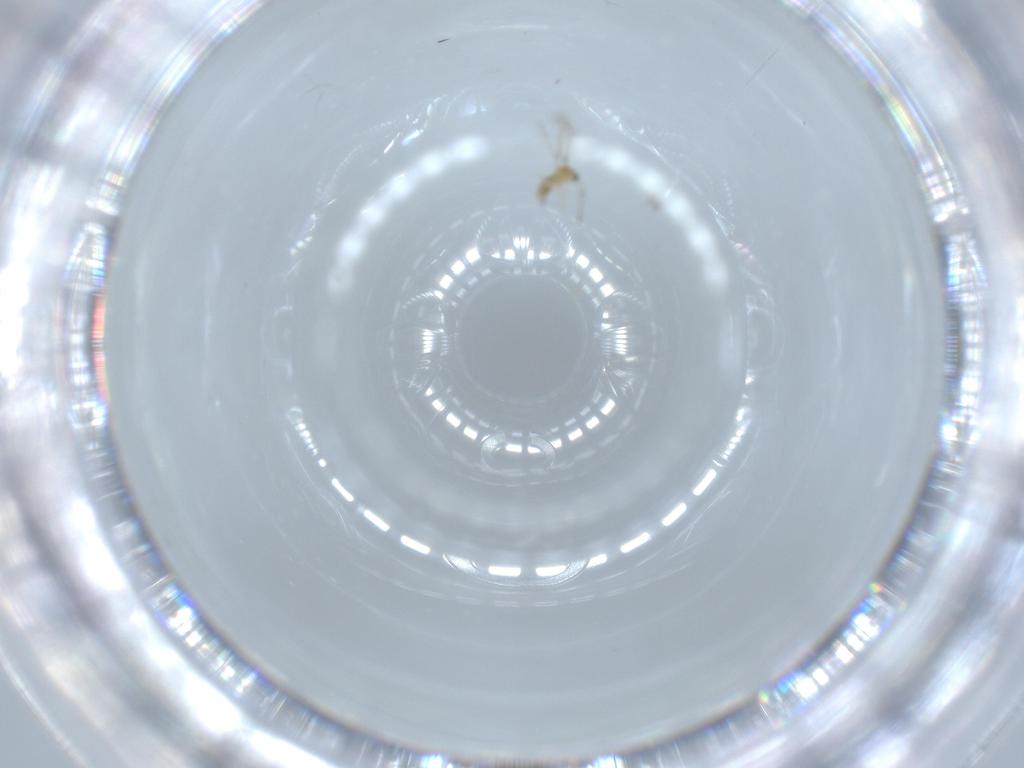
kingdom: Animalia
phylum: Arthropoda
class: Insecta
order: Hymenoptera
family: Mymaridae
